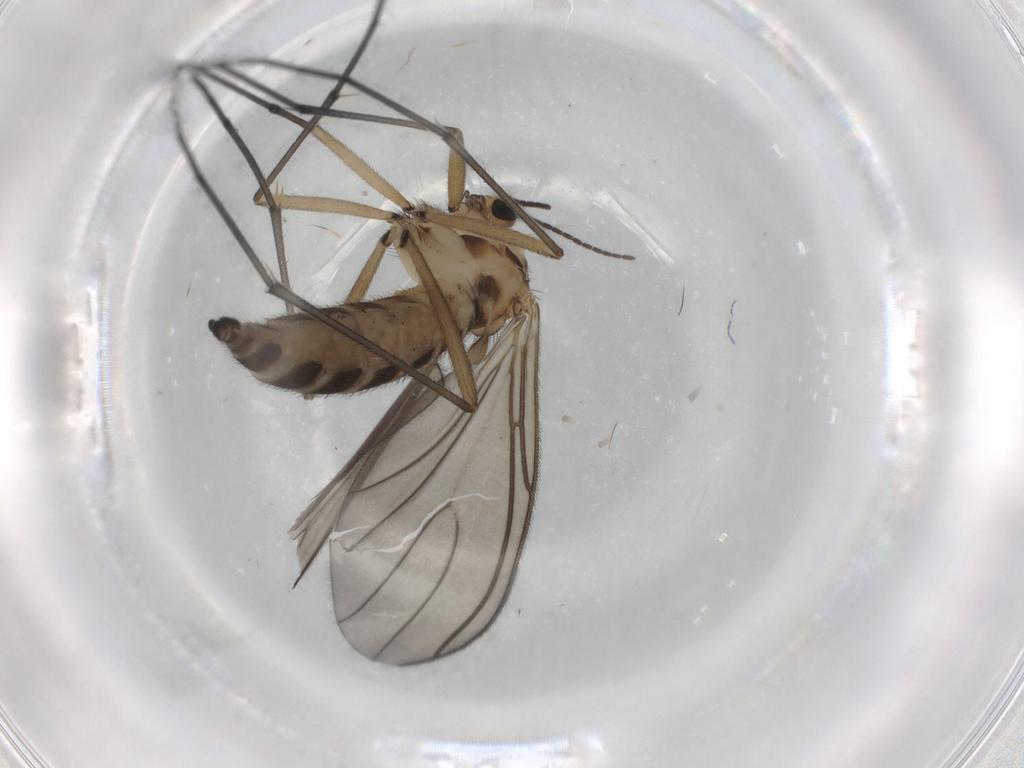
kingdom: Animalia
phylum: Arthropoda
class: Insecta
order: Diptera
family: Sciaridae
